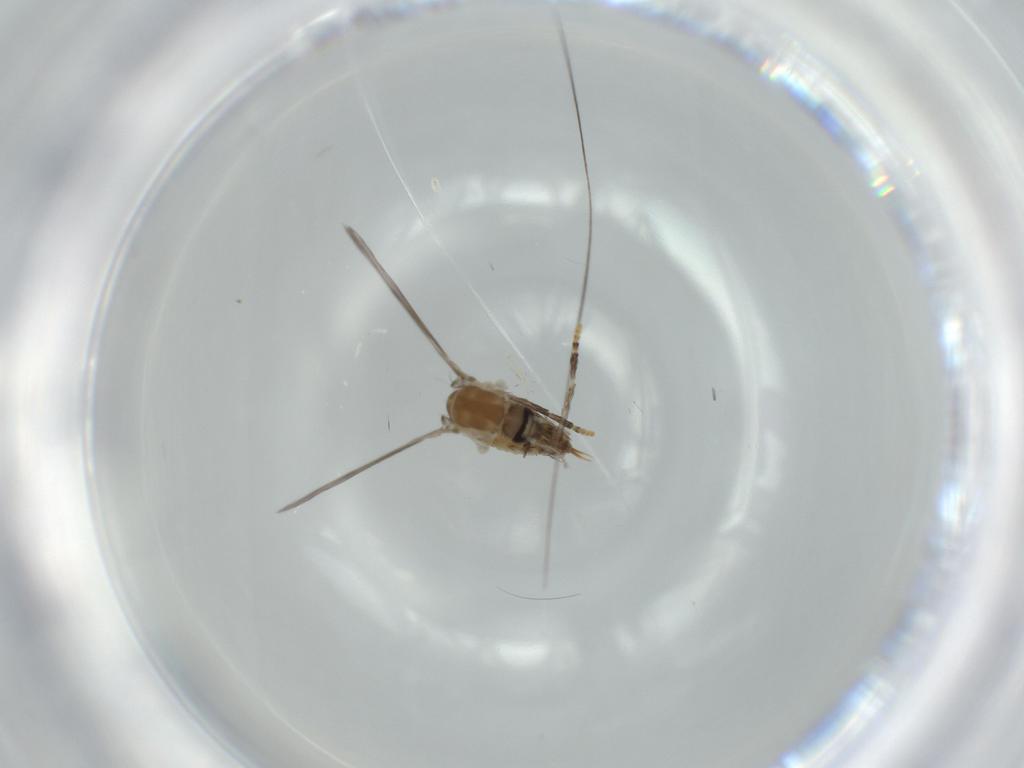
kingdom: Animalia
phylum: Arthropoda
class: Insecta
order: Diptera
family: Psychodidae
